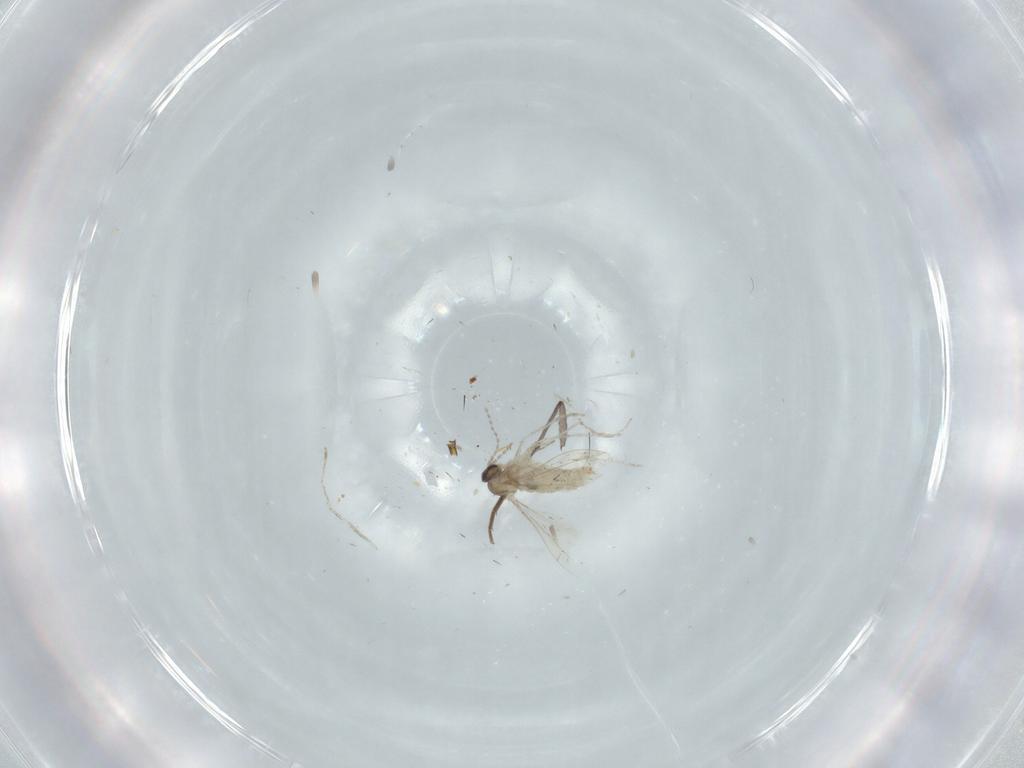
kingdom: Animalia
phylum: Arthropoda
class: Insecta
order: Diptera
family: Cecidomyiidae
